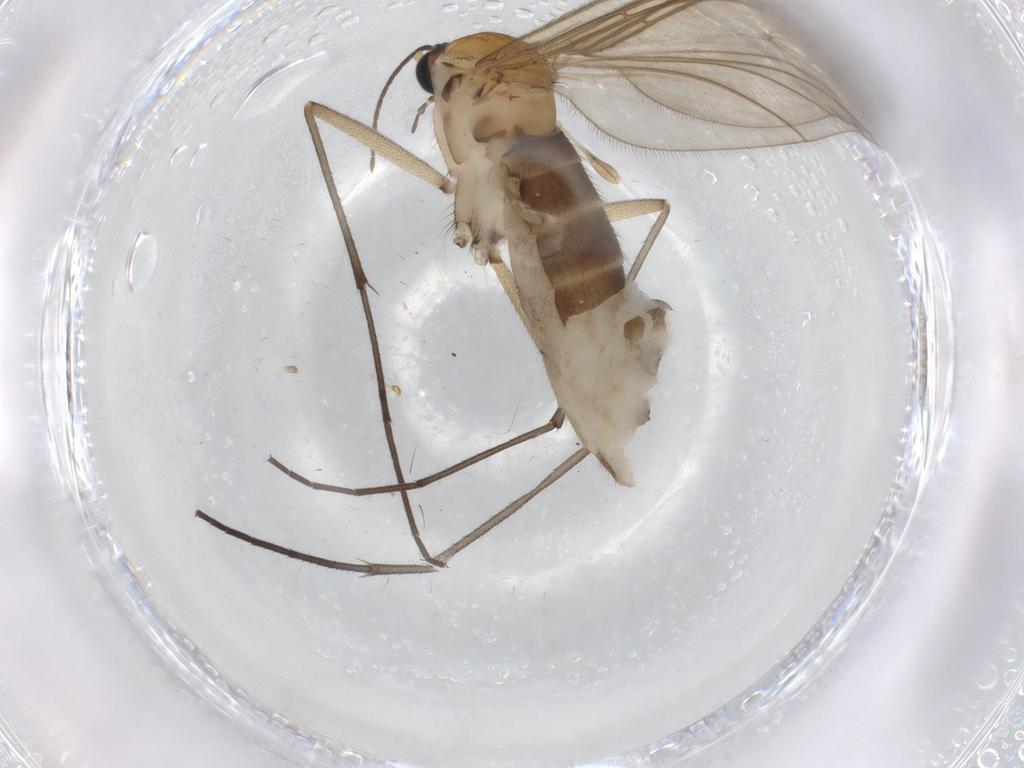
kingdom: Animalia
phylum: Arthropoda
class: Insecta
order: Diptera
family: Sciaridae
